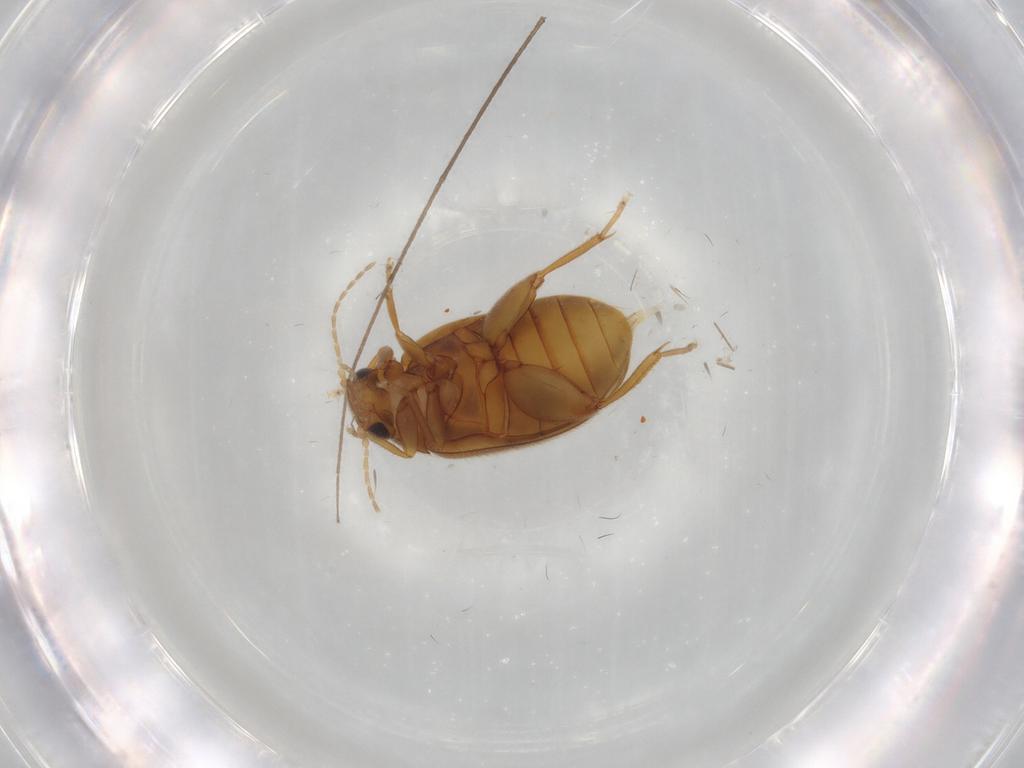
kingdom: Animalia
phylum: Arthropoda
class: Insecta
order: Coleoptera
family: Scirtidae
